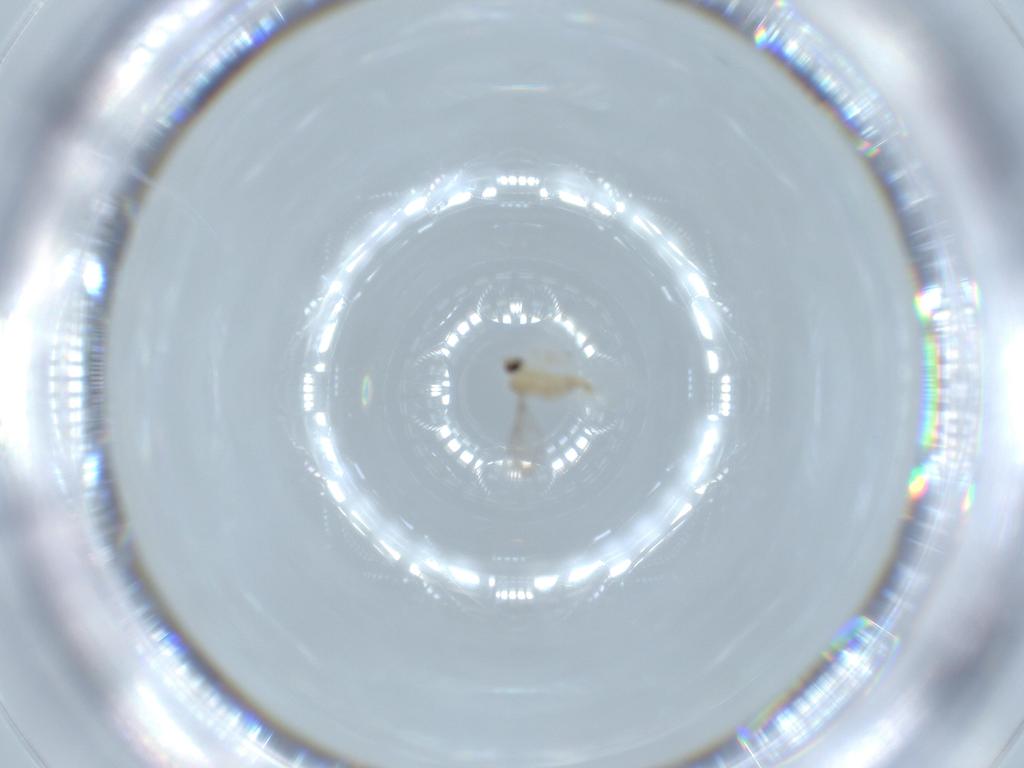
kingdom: Animalia
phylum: Arthropoda
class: Insecta
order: Diptera
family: Cecidomyiidae
